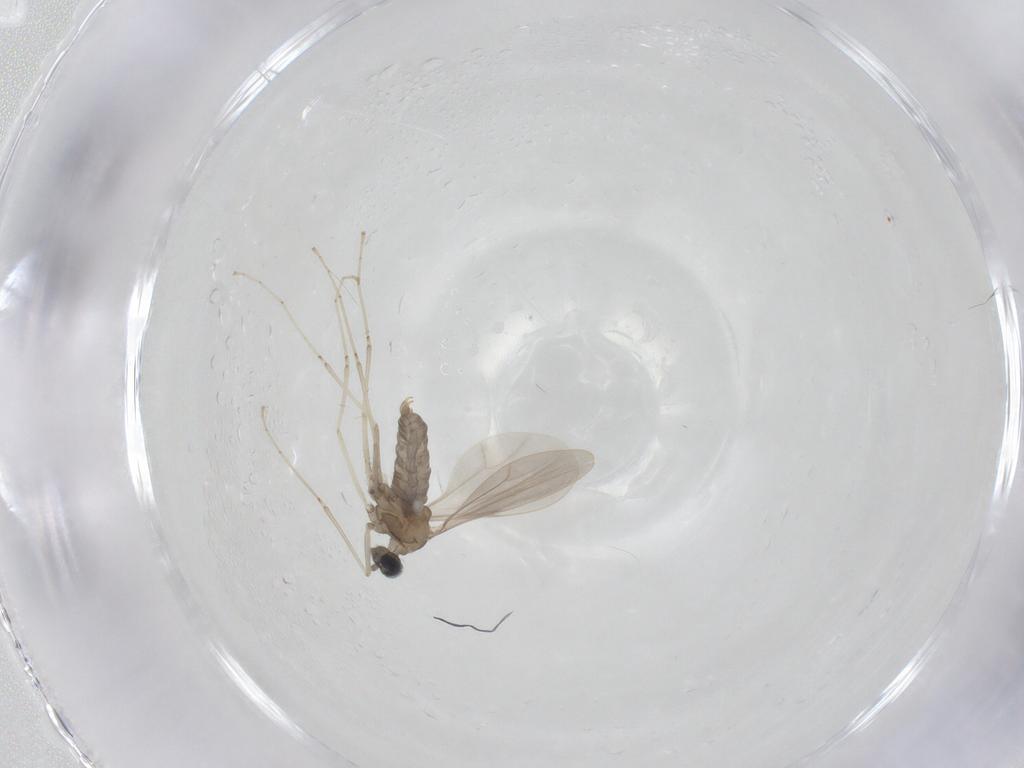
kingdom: Animalia
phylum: Arthropoda
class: Insecta
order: Diptera
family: Cecidomyiidae
